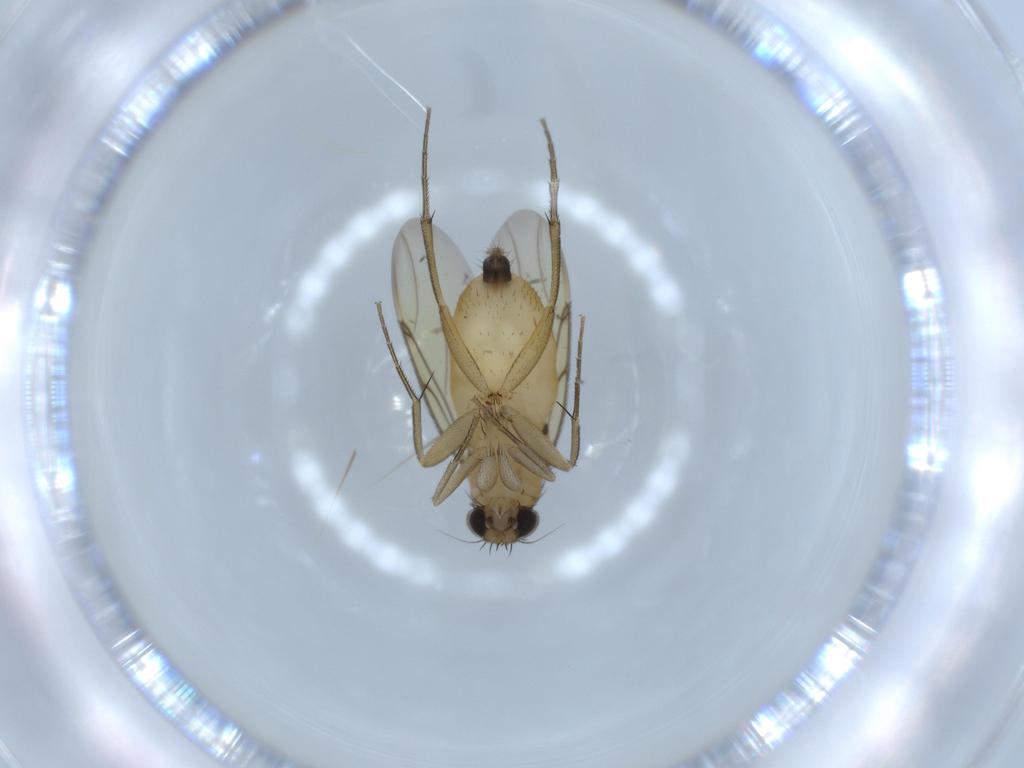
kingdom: Animalia
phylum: Arthropoda
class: Insecta
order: Diptera
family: Phoridae
